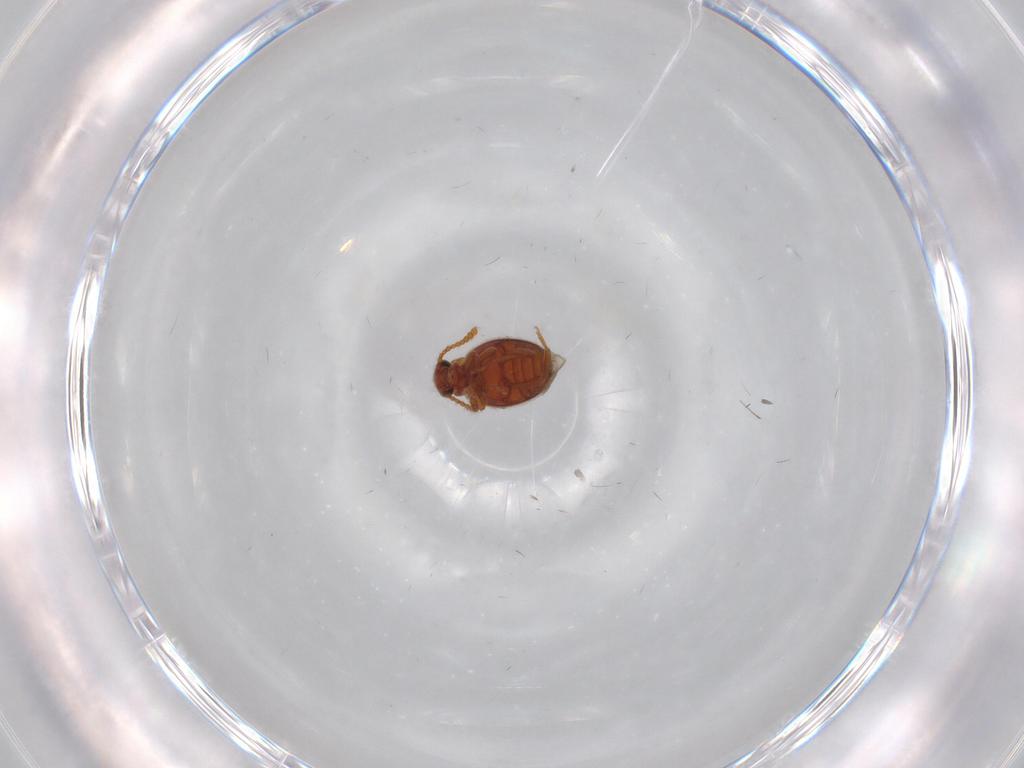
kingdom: Animalia
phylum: Arthropoda
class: Insecta
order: Coleoptera
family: Aderidae
